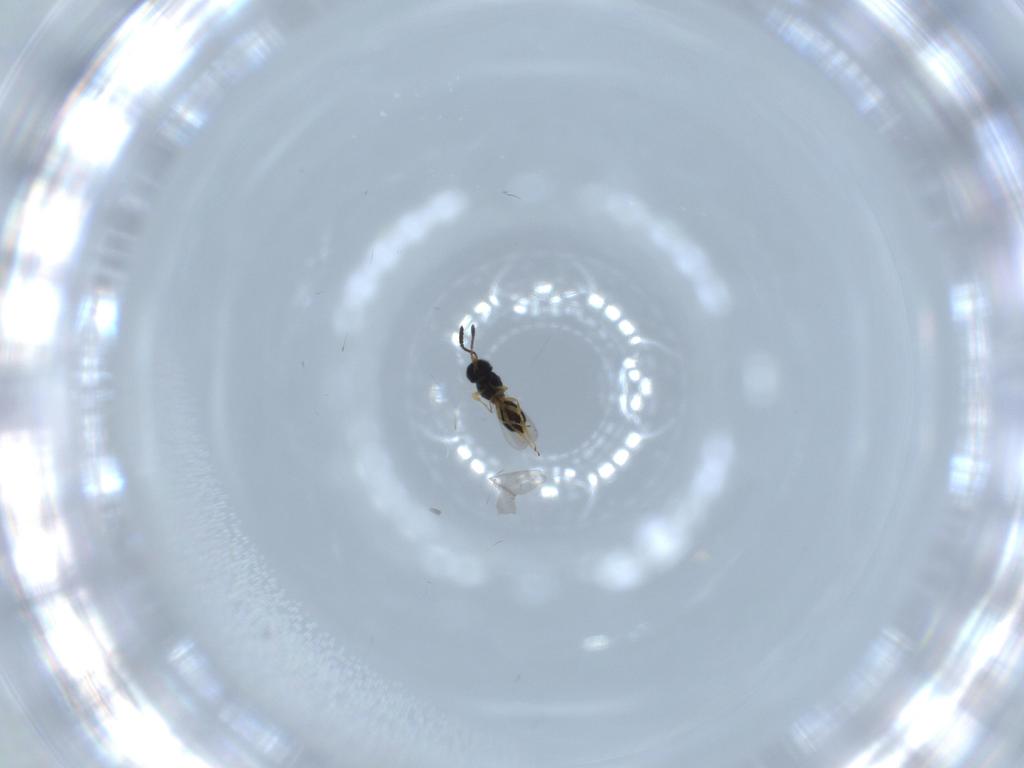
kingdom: Animalia
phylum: Arthropoda
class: Insecta
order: Hymenoptera
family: Scelionidae
